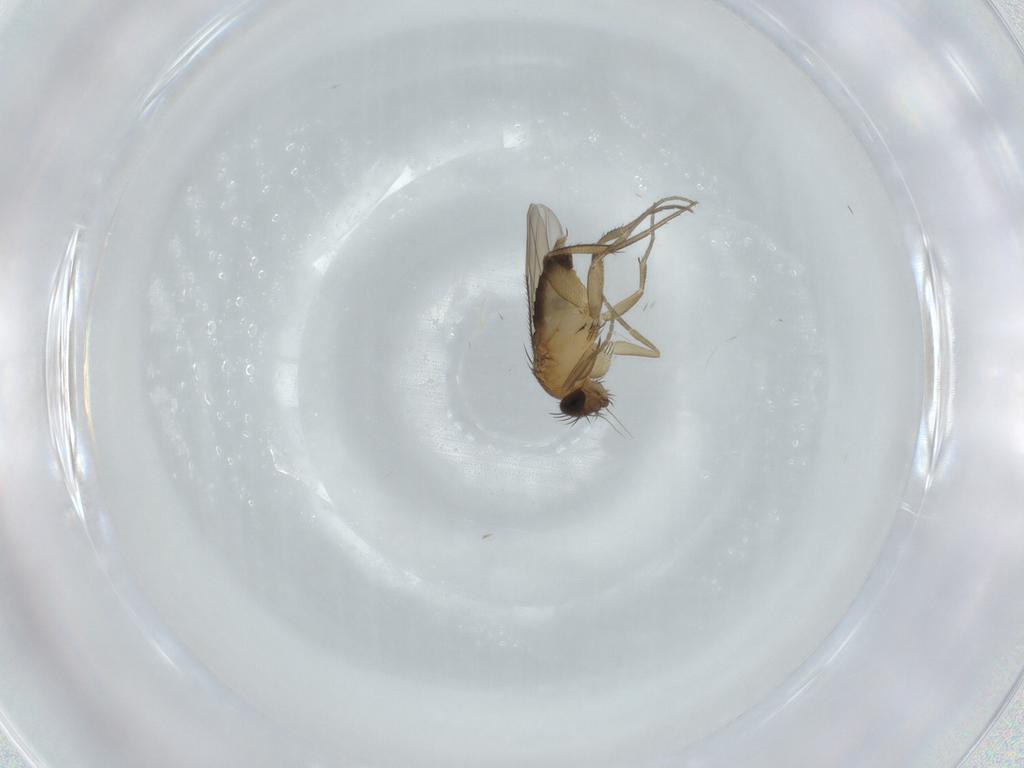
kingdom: Animalia
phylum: Arthropoda
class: Insecta
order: Diptera
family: Phoridae
